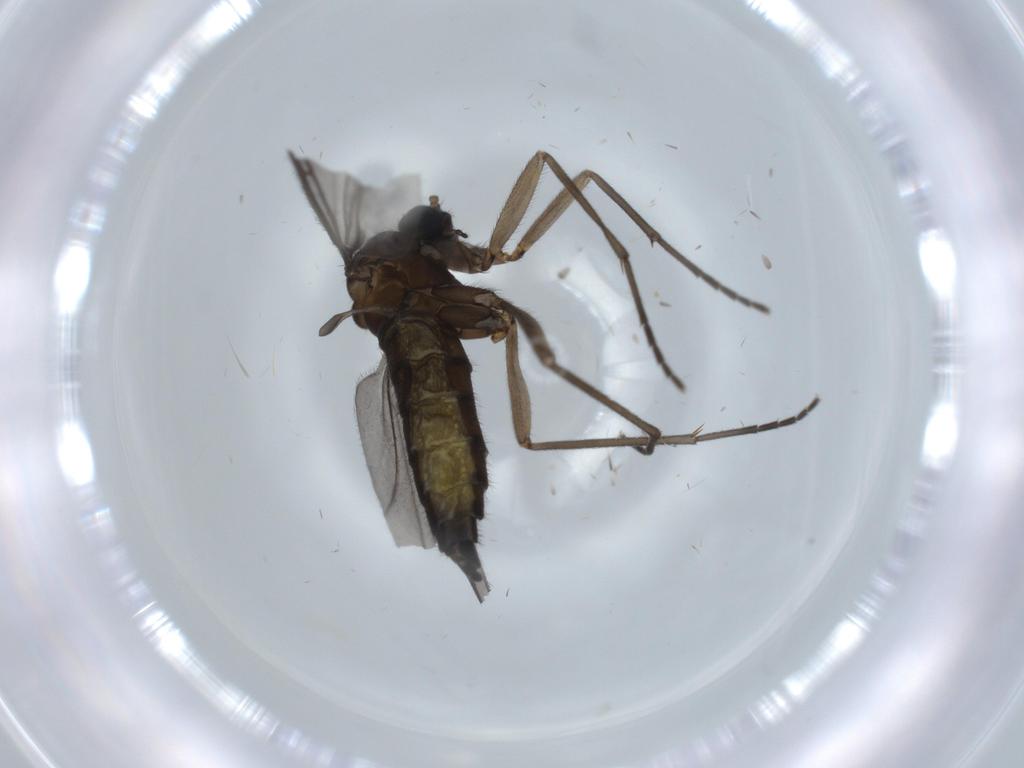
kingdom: Animalia
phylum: Arthropoda
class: Insecta
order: Diptera
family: Sciaridae
